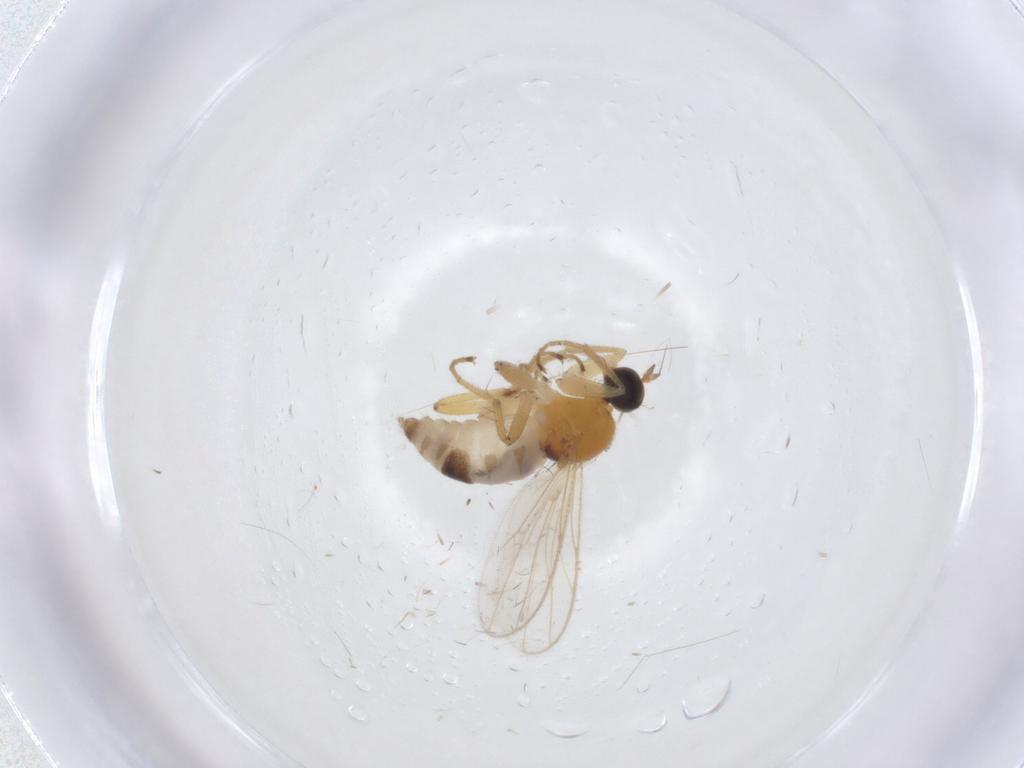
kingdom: Animalia
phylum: Arthropoda
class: Insecta
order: Diptera
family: Hybotidae
